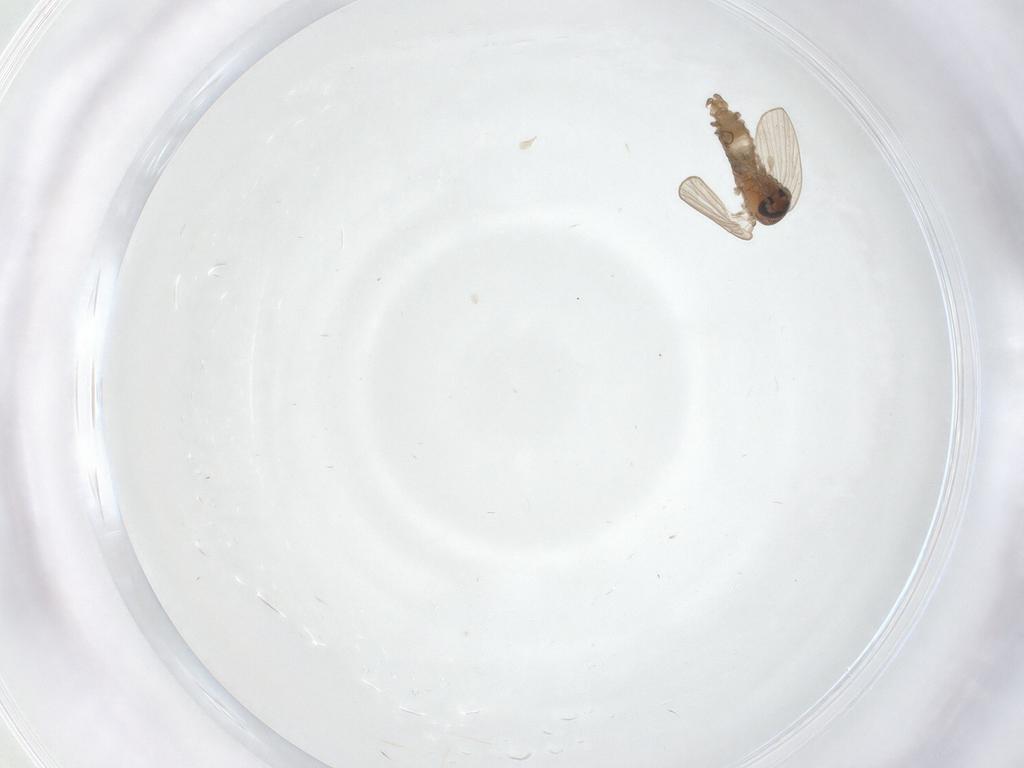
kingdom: Animalia
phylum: Arthropoda
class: Insecta
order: Diptera
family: Psychodidae
